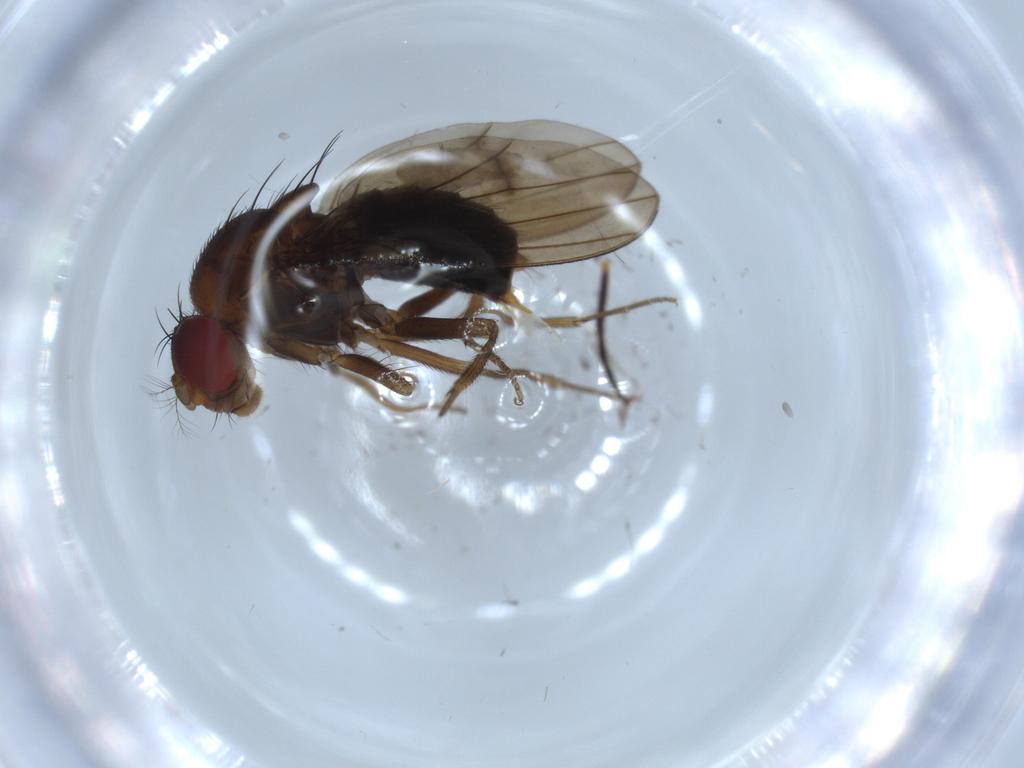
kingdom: Animalia
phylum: Arthropoda
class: Insecta
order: Diptera
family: Drosophilidae
